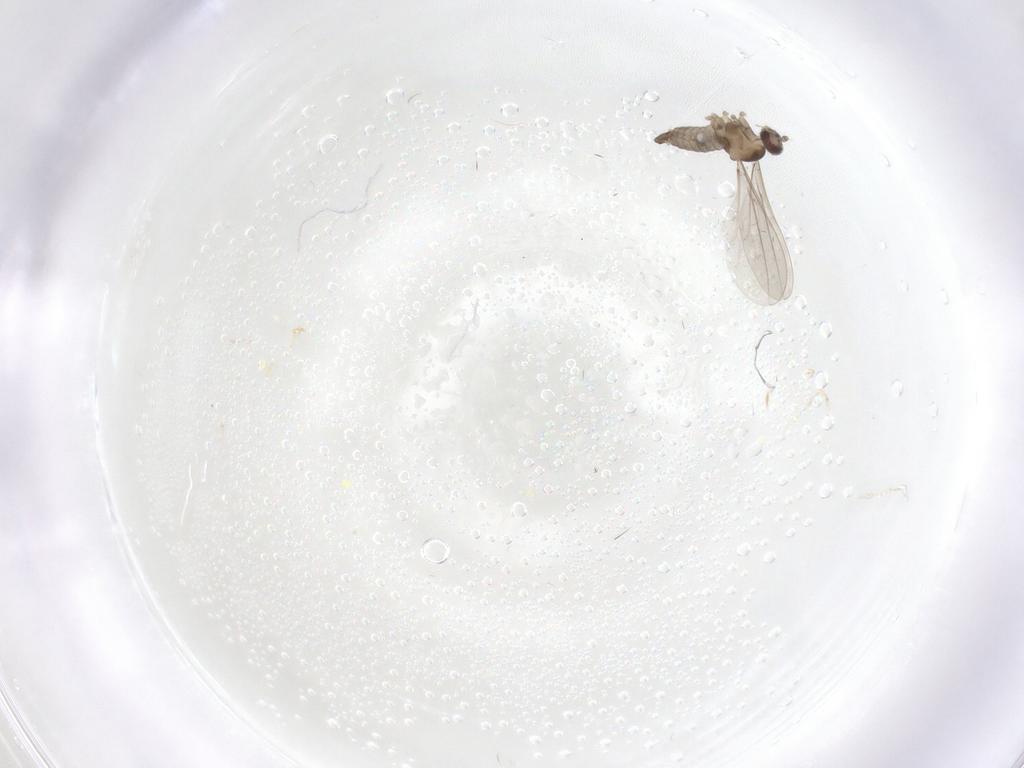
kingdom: Animalia
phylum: Arthropoda
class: Insecta
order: Diptera
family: Cecidomyiidae
